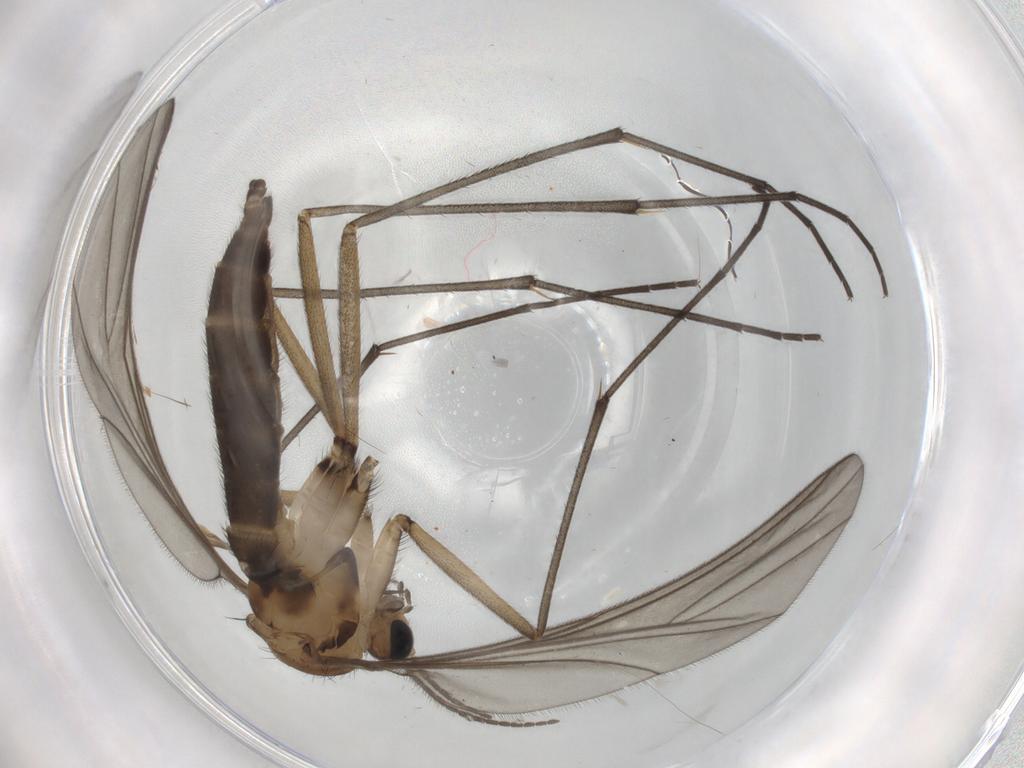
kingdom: Animalia
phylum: Arthropoda
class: Insecta
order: Diptera
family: Sciaridae
